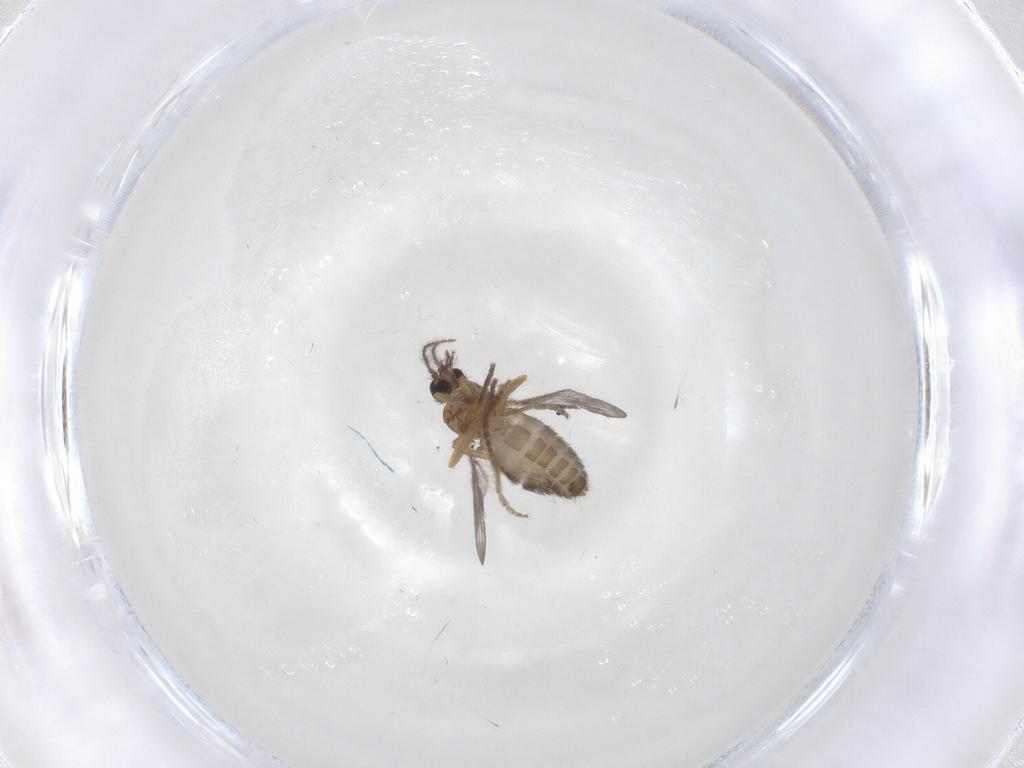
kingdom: Animalia
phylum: Arthropoda
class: Insecta
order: Diptera
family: Ceratopogonidae
